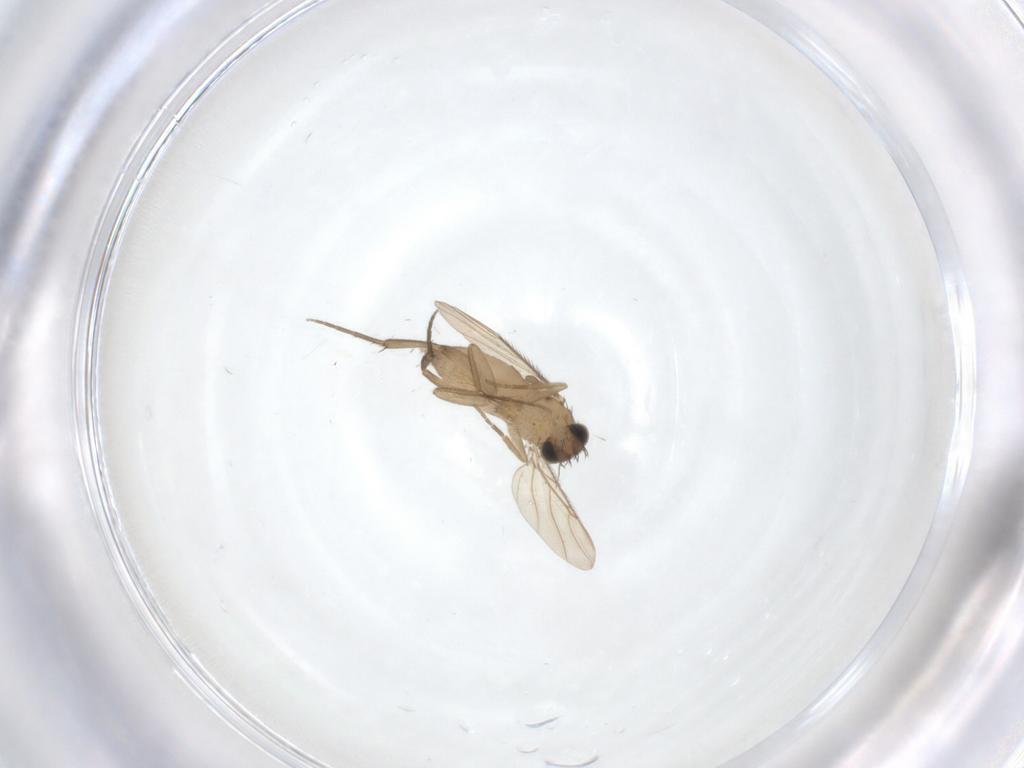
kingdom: Animalia
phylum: Arthropoda
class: Insecta
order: Diptera
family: Phoridae
